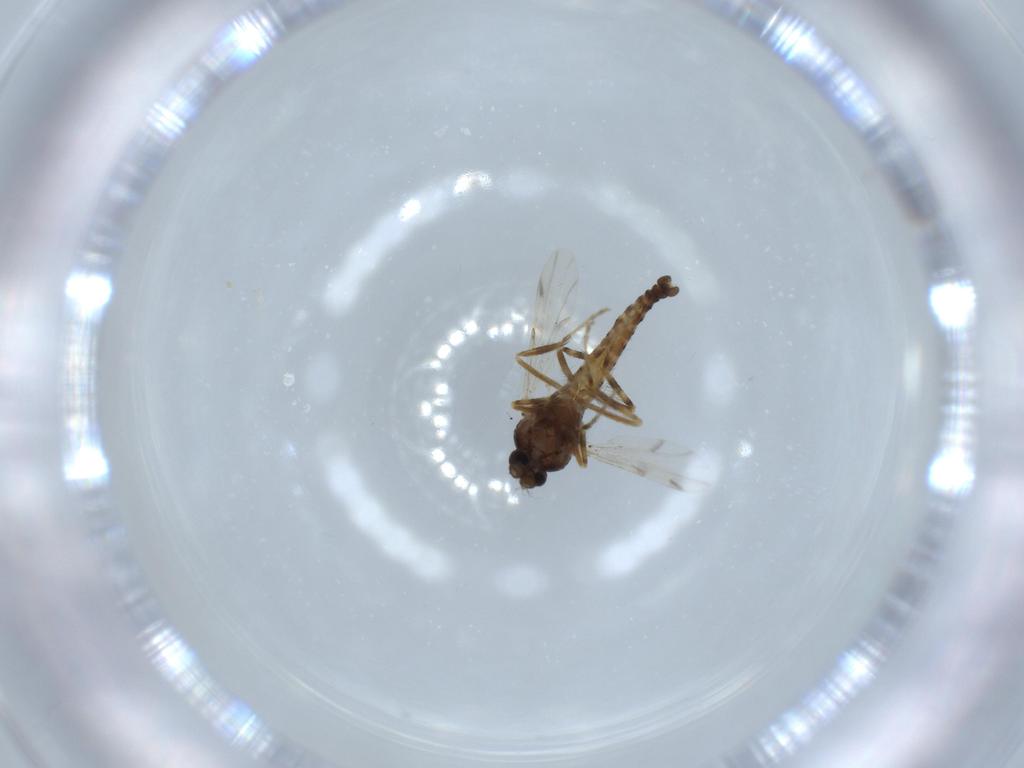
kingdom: Animalia
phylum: Arthropoda
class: Insecta
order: Diptera
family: Ceratopogonidae
